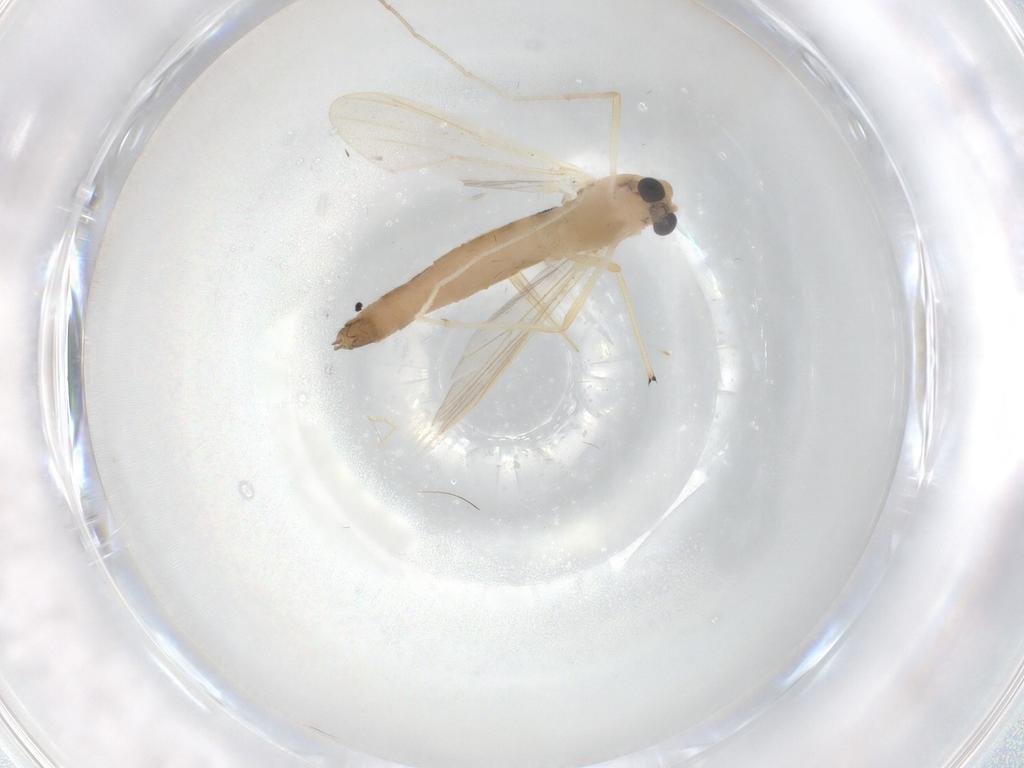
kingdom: Animalia
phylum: Arthropoda
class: Insecta
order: Diptera
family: Chironomidae
